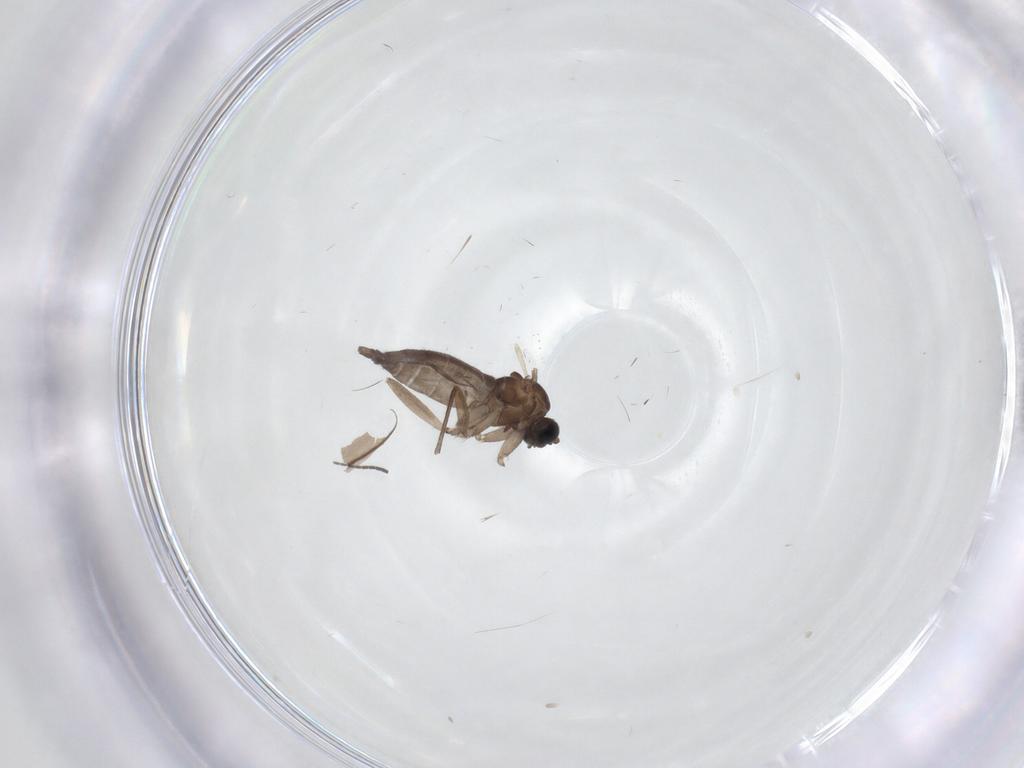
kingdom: Animalia
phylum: Arthropoda
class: Insecta
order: Diptera
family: Sciaridae
